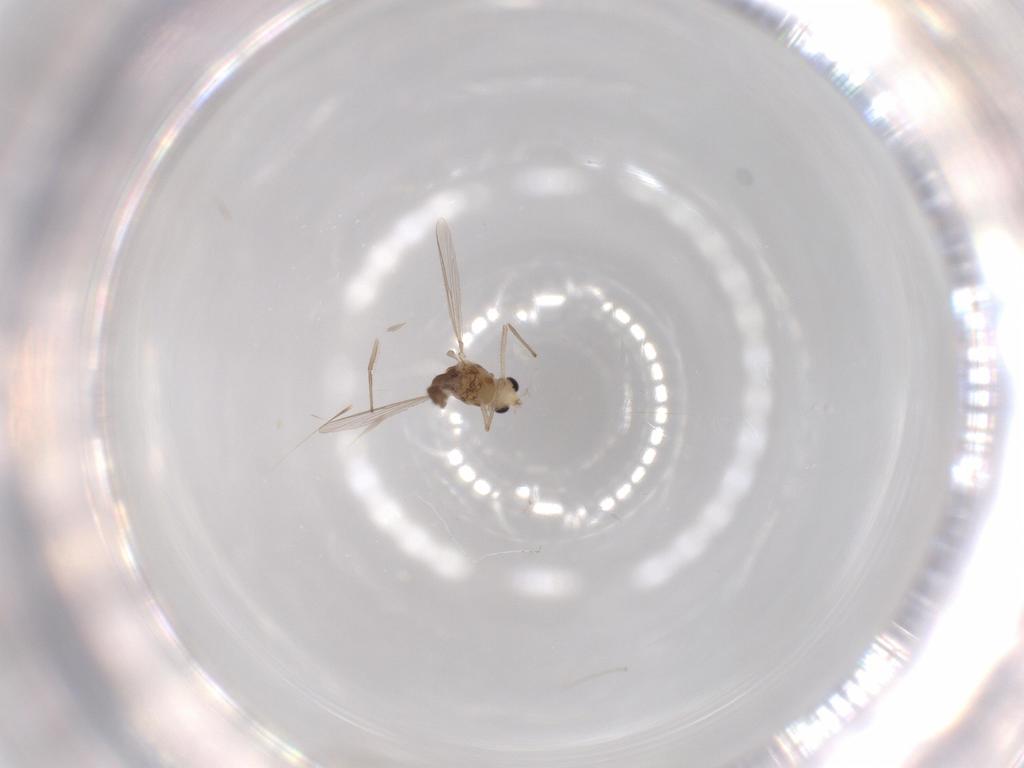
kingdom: Animalia
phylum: Arthropoda
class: Insecta
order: Diptera
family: Chironomidae
